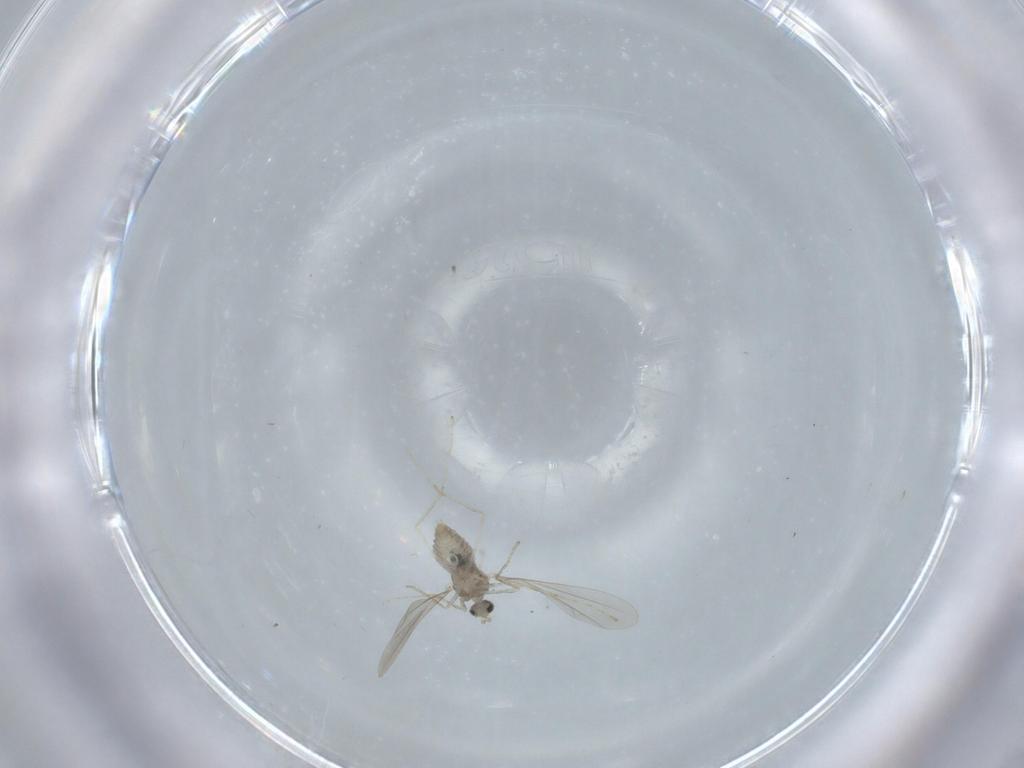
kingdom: Animalia
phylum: Arthropoda
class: Insecta
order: Diptera
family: Cecidomyiidae
